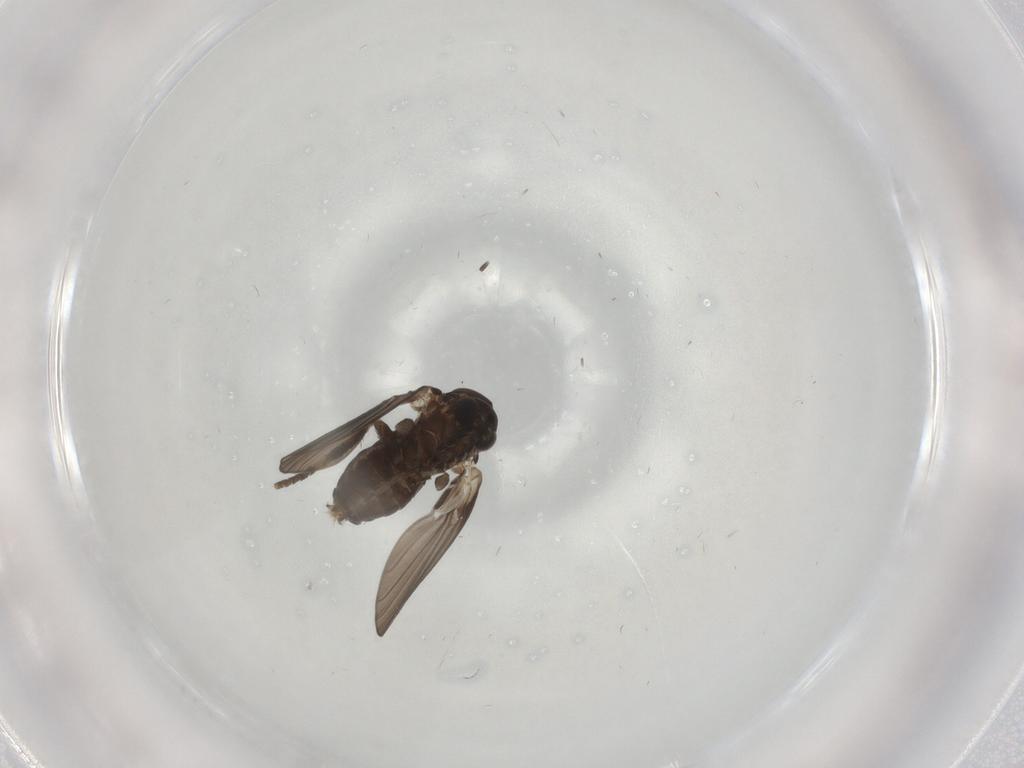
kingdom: Animalia
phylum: Arthropoda
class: Insecta
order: Diptera
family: Psychodidae
